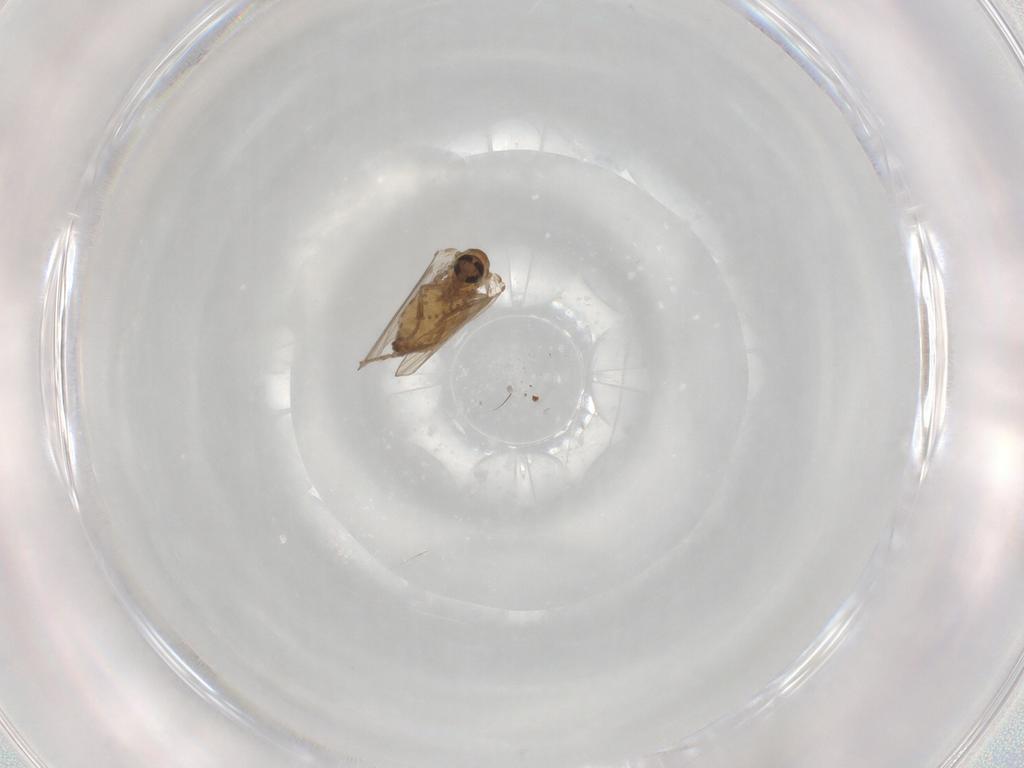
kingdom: Animalia
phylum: Arthropoda
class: Insecta
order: Diptera
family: Psychodidae
